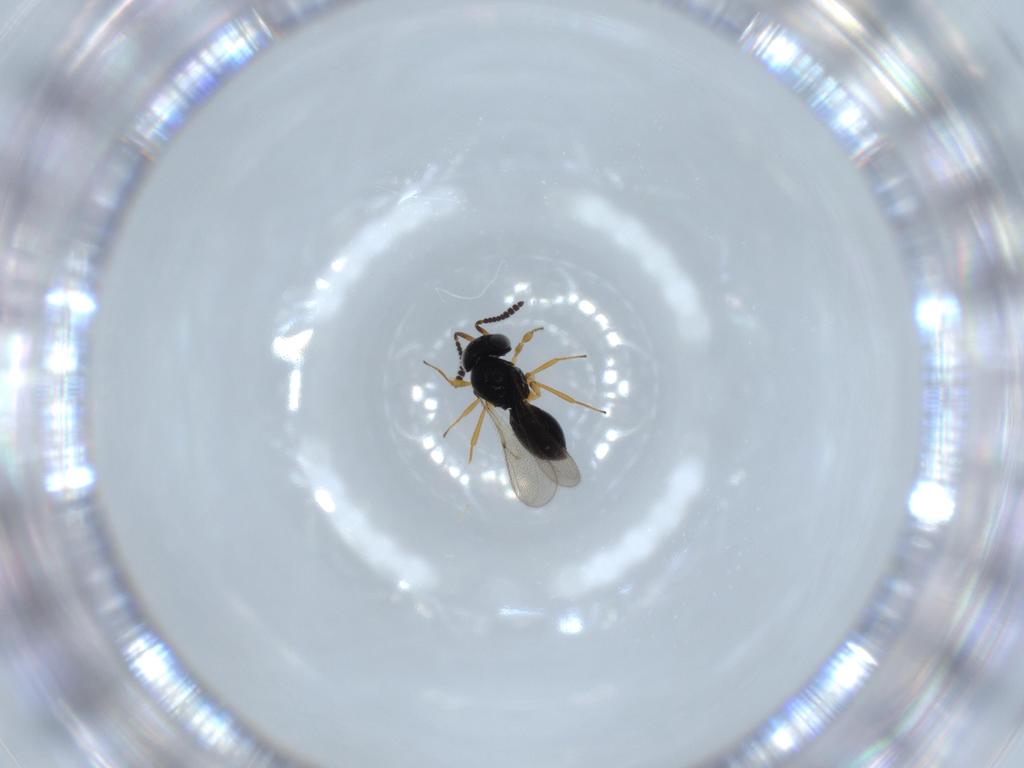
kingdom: Animalia
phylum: Arthropoda
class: Insecta
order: Hymenoptera
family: Scelionidae
